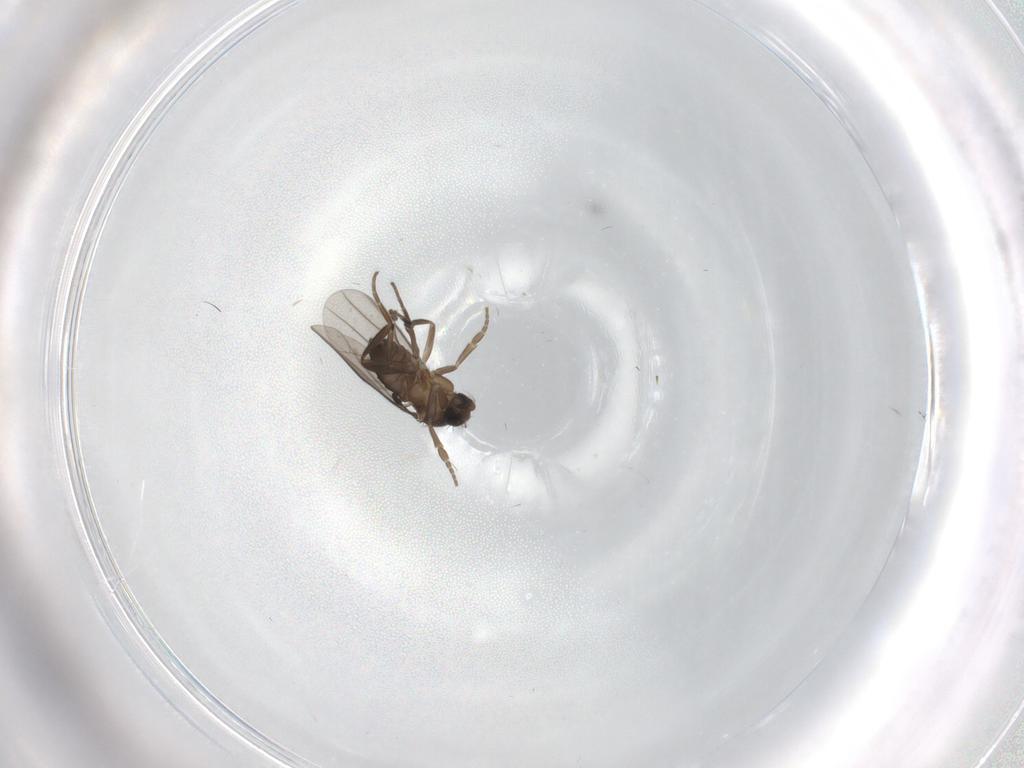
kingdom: Animalia
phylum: Arthropoda
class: Insecta
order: Diptera
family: Phoridae
